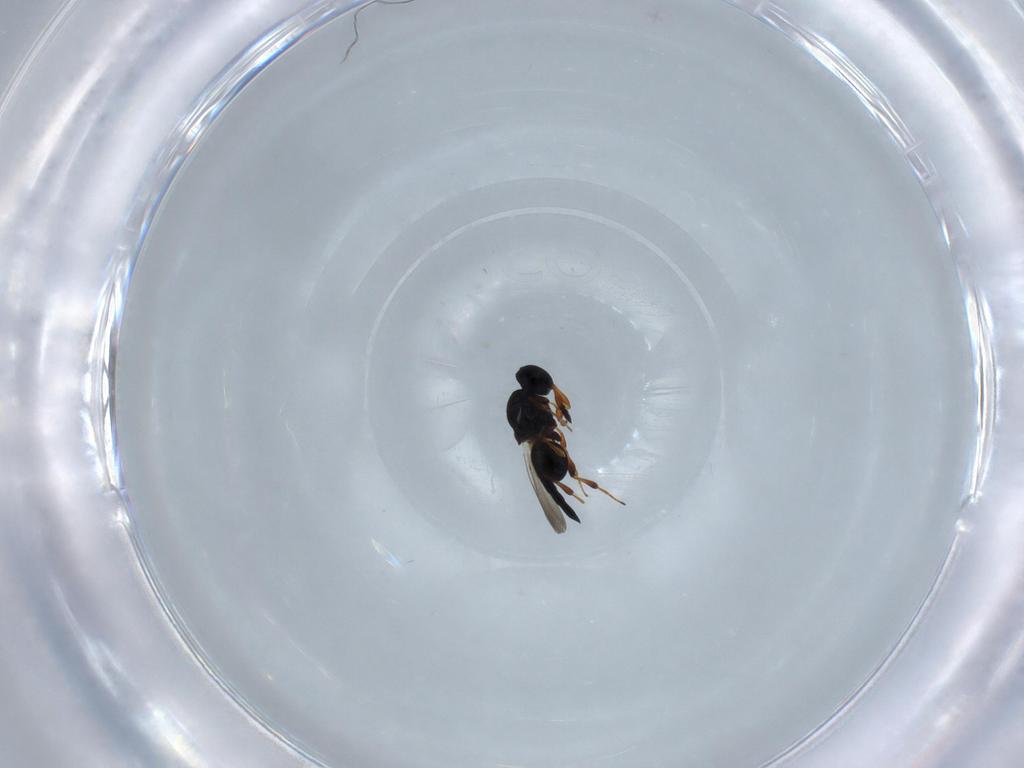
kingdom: Animalia
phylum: Arthropoda
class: Insecta
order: Hymenoptera
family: Platygastridae
